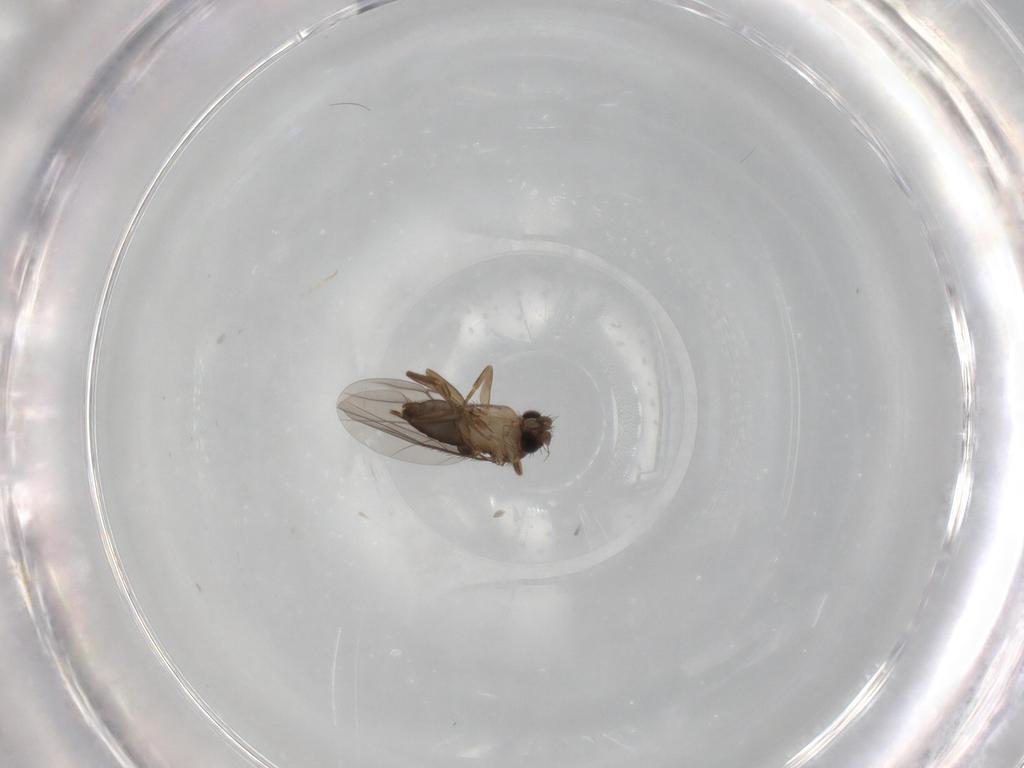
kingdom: Animalia
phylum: Arthropoda
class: Insecta
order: Diptera
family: Phoridae
